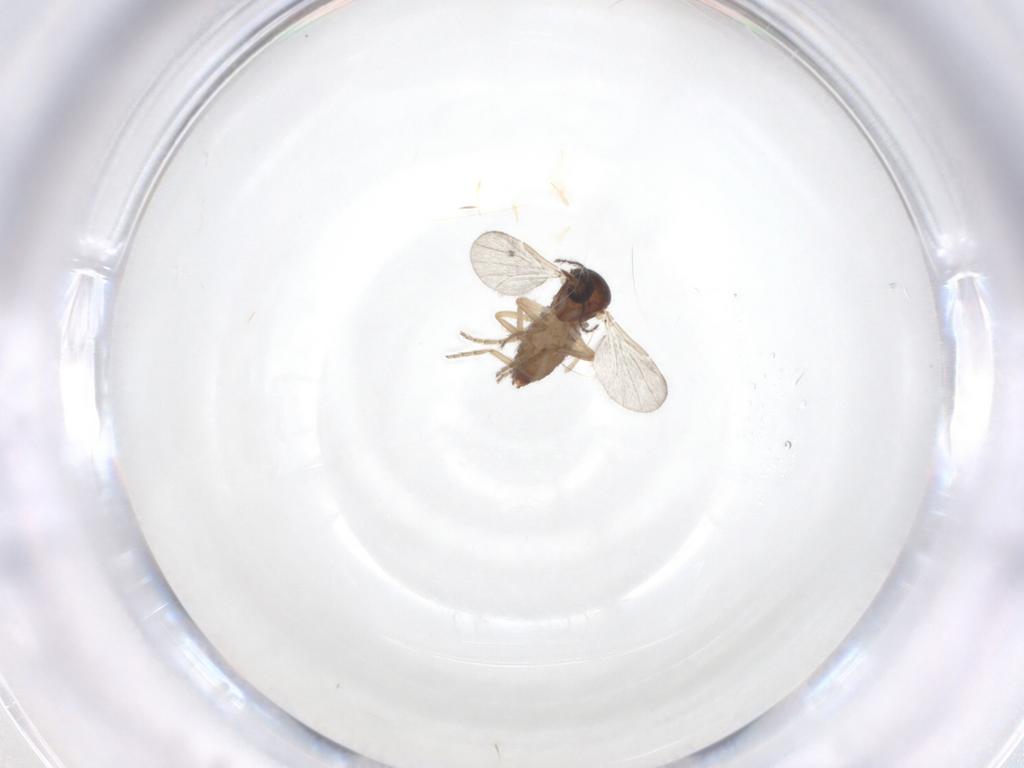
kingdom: Animalia
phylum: Arthropoda
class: Insecta
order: Diptera
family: Ceratopogonidae
